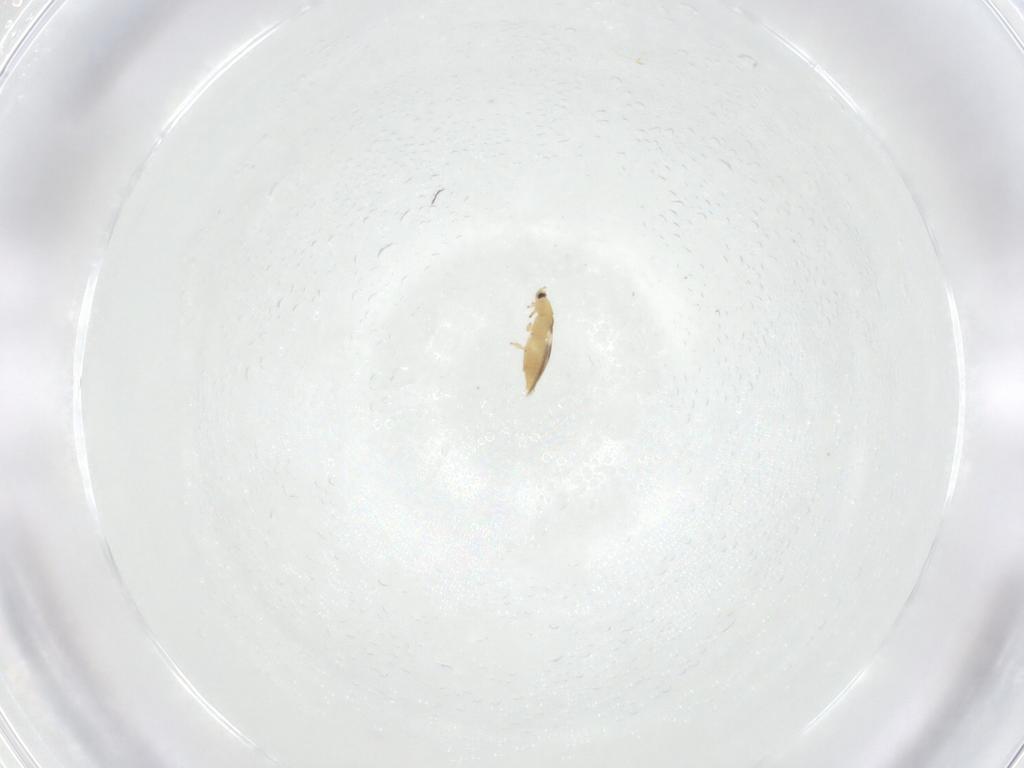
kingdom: Animalia
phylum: Arthropoda
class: Insecta
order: Thysanoptera
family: Thripidae
